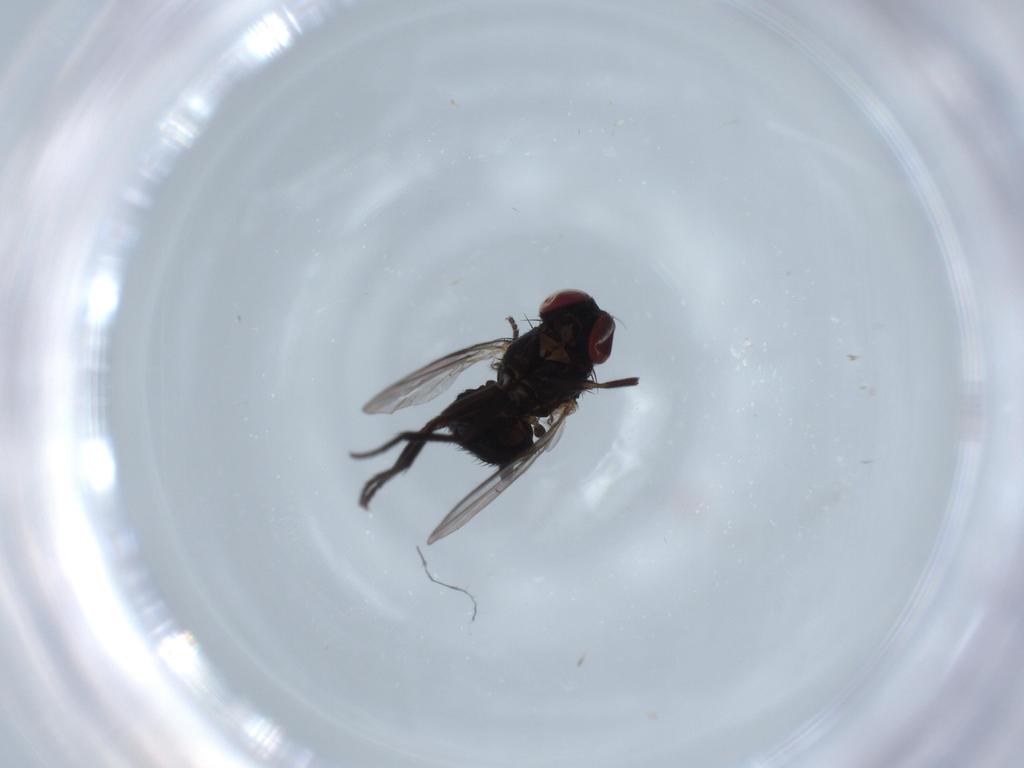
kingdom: Animalia
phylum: Arthropoda
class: Insecta
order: Diptera
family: Agromyzidae
